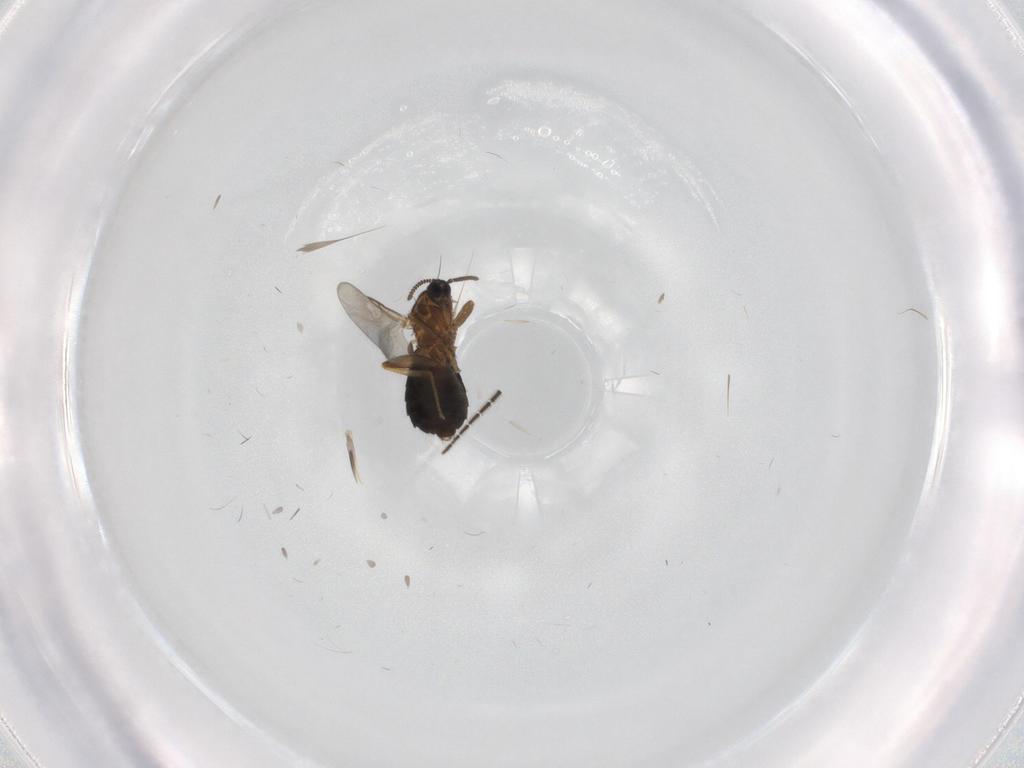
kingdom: Animalia
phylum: Arthropoda
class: Insecta
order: Diptera
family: Scatopsidae
